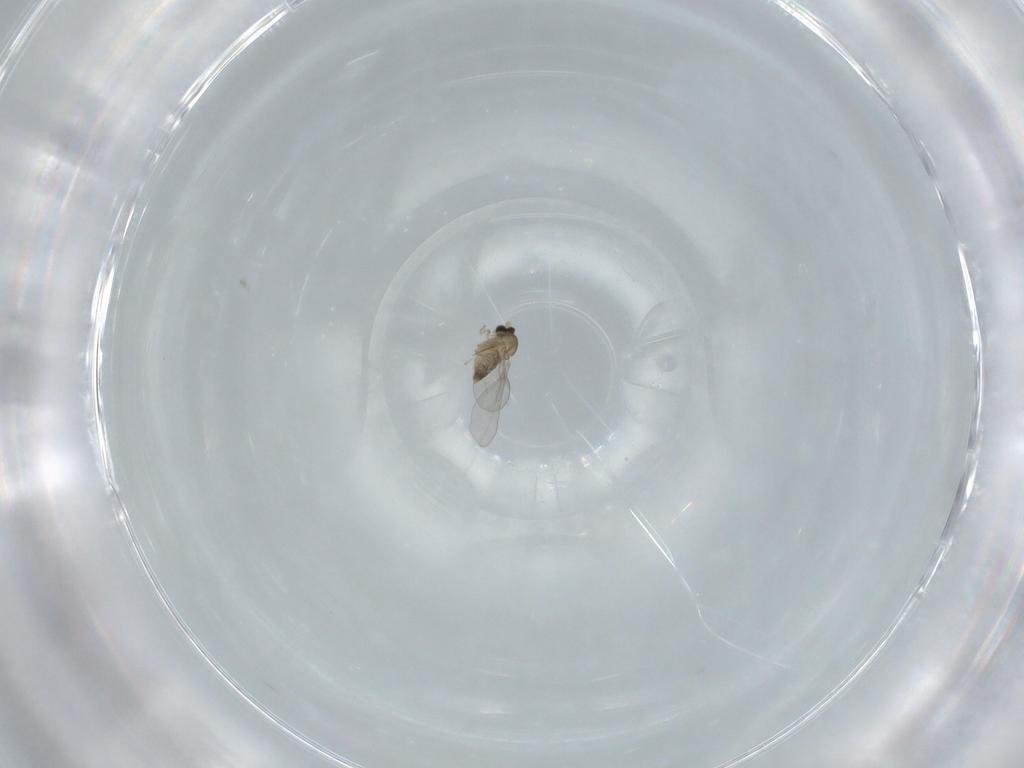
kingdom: Animalia
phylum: Arthropoda
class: Insecta
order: Diptera
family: Cecidomyiidae
